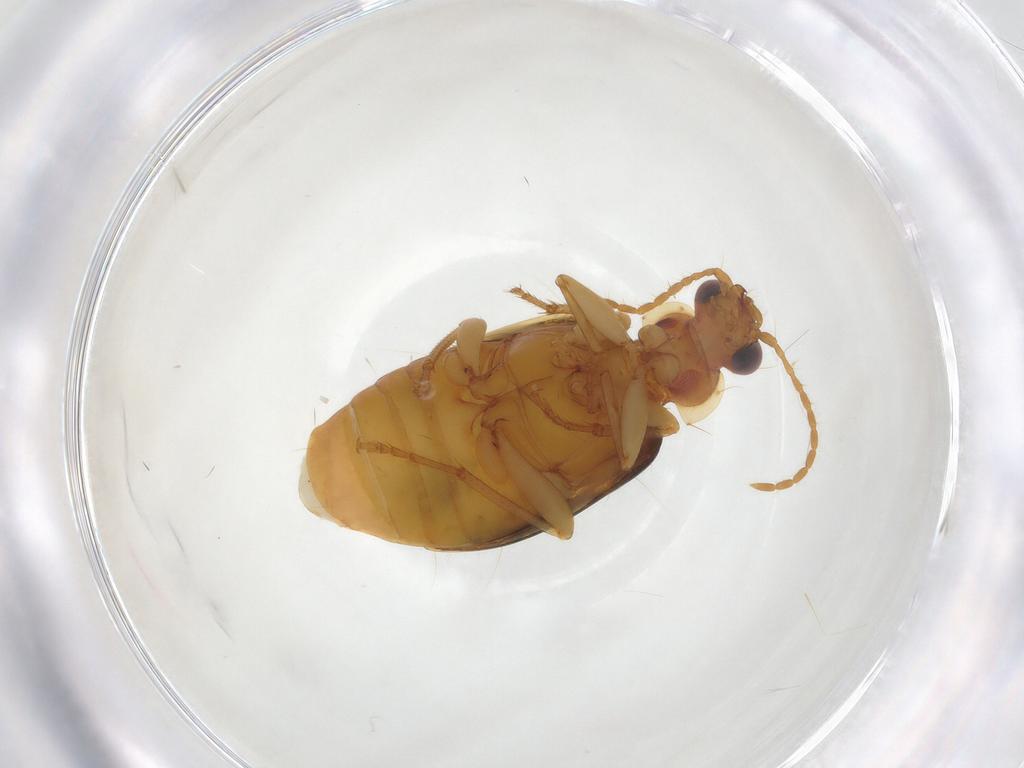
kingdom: Animalia
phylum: Arthropoda
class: Insecta
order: Coleoptera
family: Carabidae
